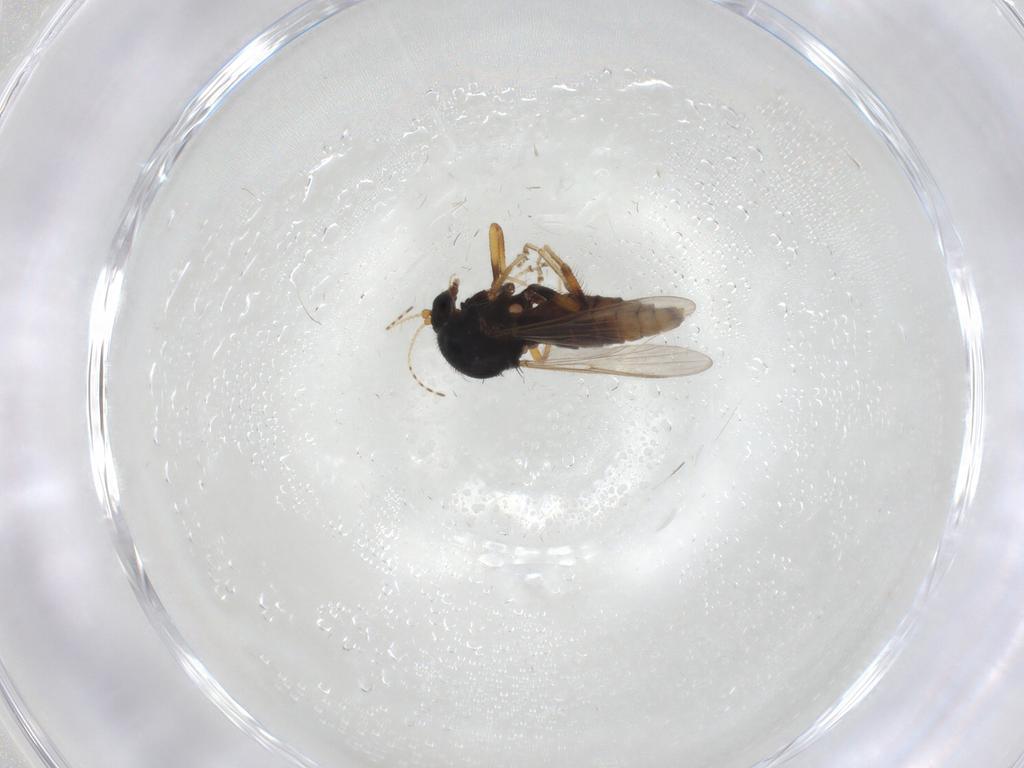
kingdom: Animalia
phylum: Arthropoda
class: Insecta
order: Diptera
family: Ceratopogonidae
